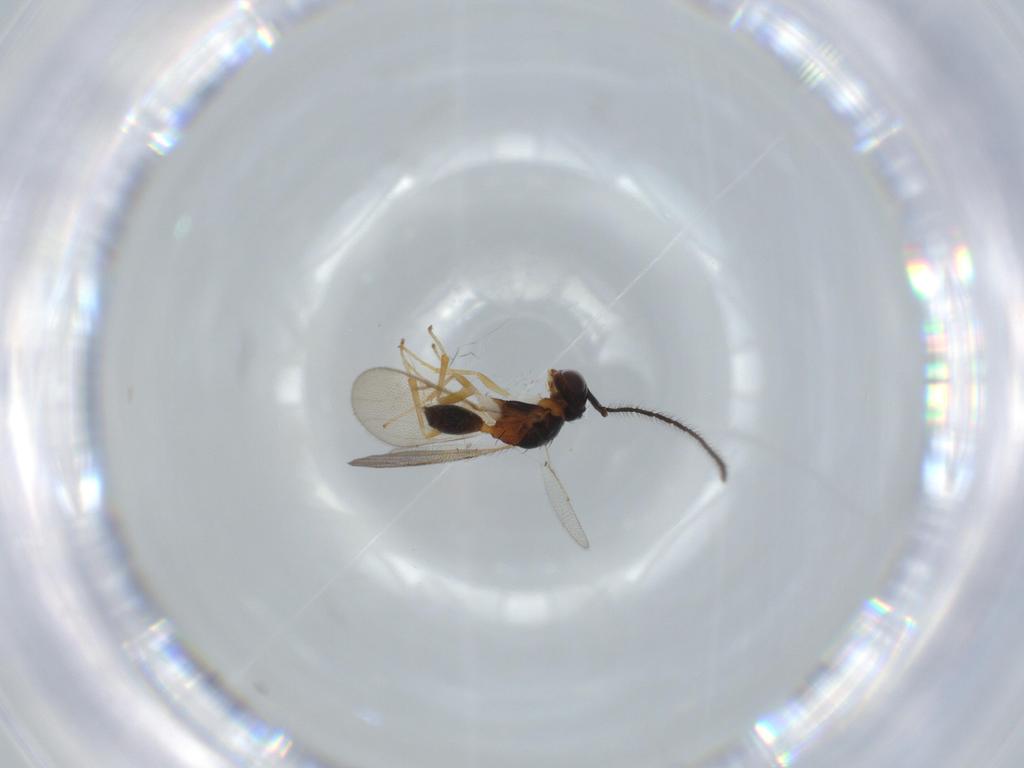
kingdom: Animalia
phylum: Arthropoda
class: Insecta
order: Hymenoptera
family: Diparidae
